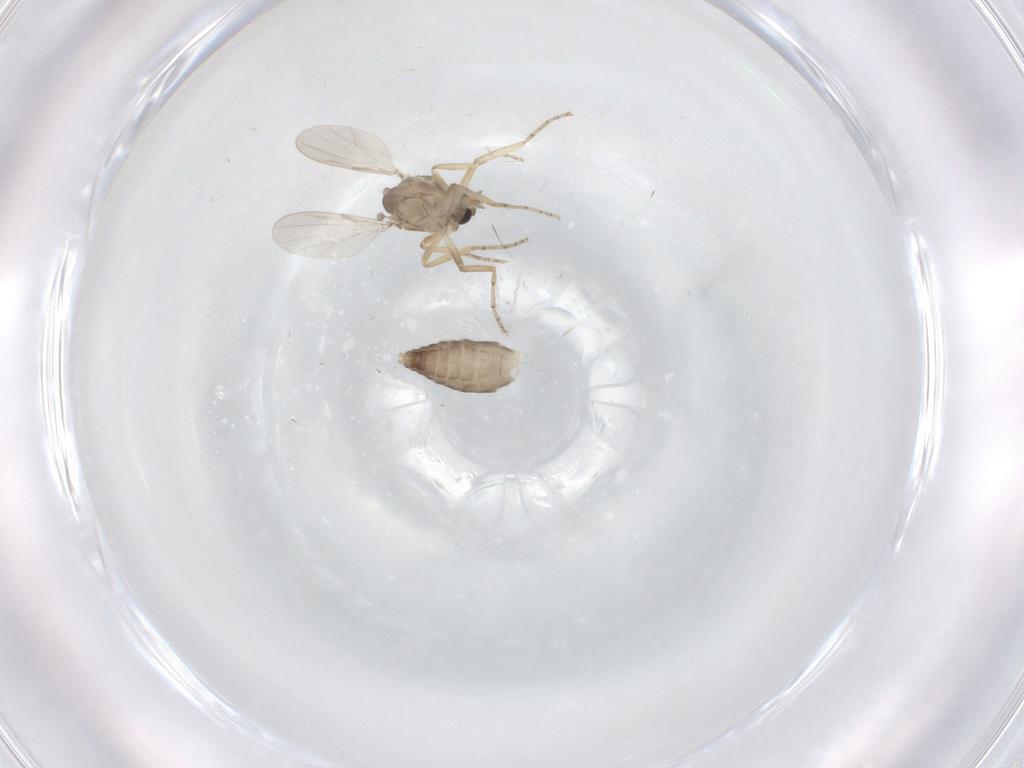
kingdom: Animalia
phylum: Arthropoda
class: Insecta
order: Diptera
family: Ceratopogonidae
